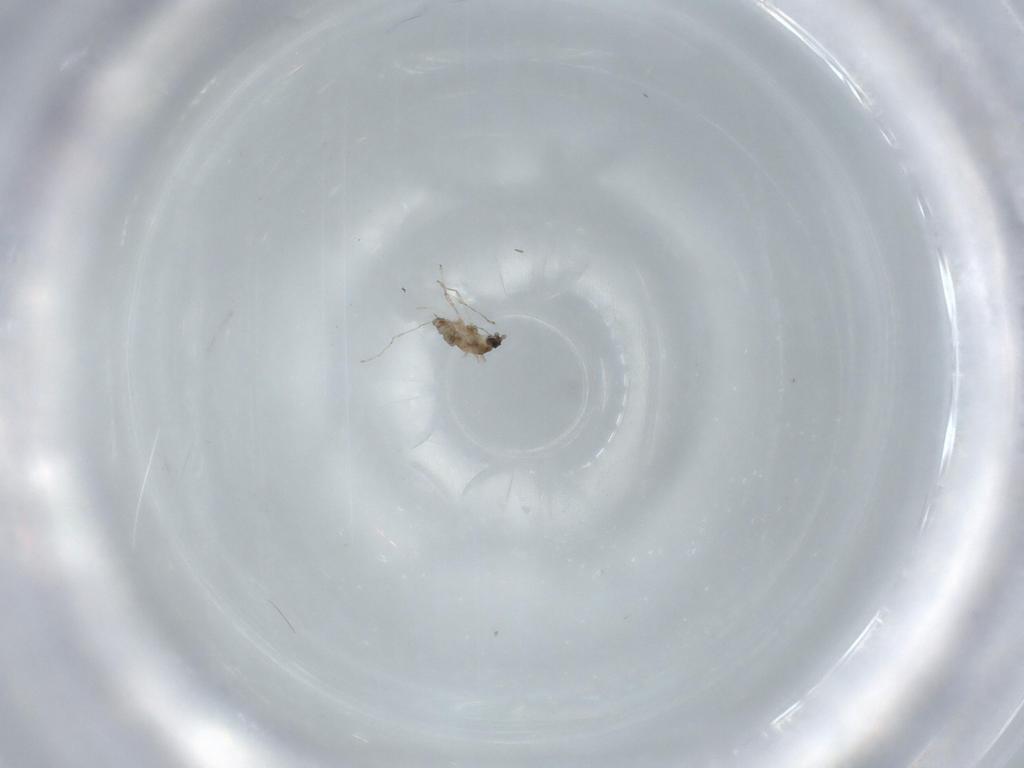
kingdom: Animalia
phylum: Arthropoda
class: Insecta
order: Diptera
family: Cecidomyiidae
